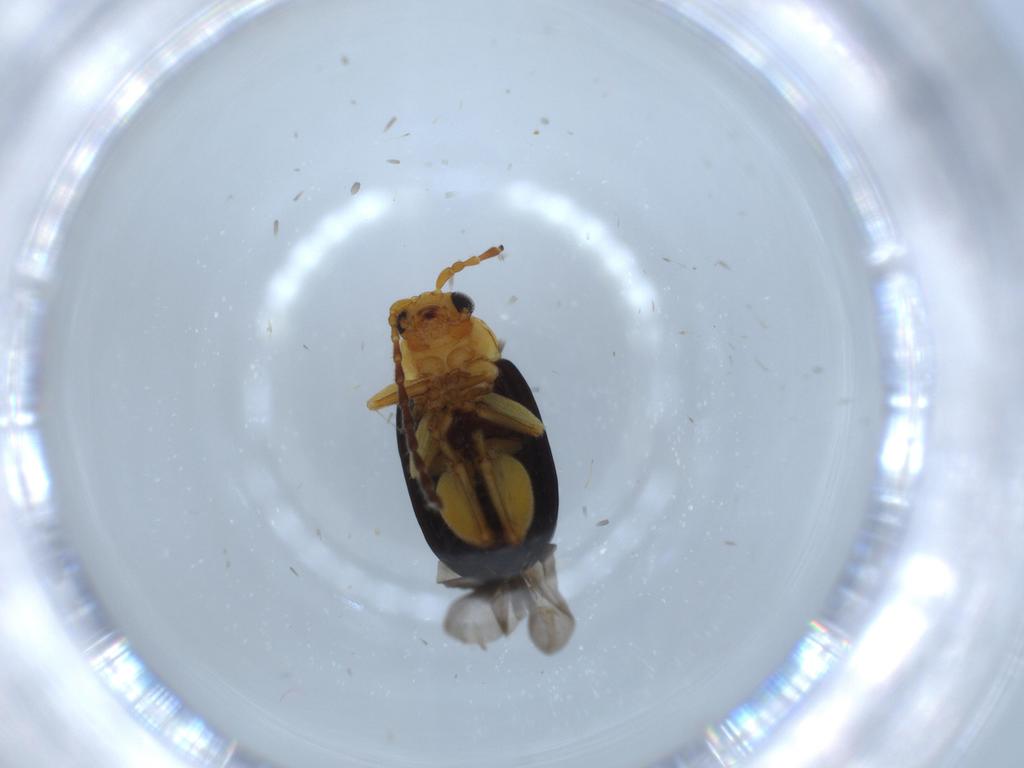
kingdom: Animalia
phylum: Arthropoda
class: Insecta
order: Coleoptera
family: Chrysomelidae
